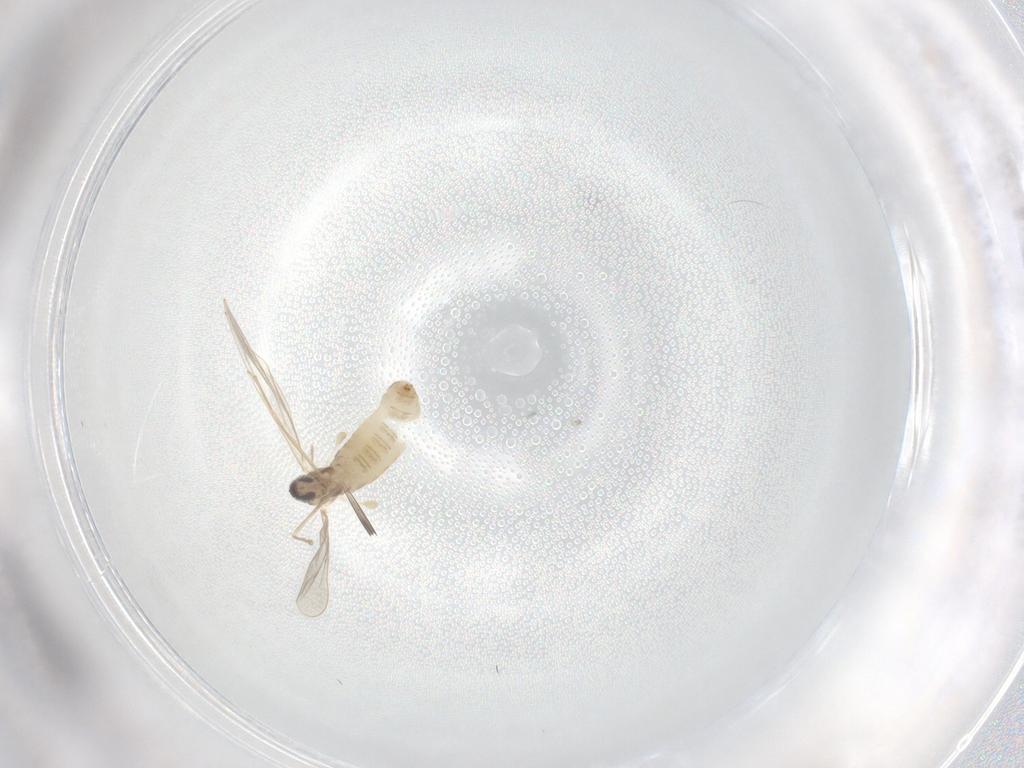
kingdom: Animalia
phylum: Arthropoda
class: Insecta
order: Diptera
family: Cecidomyiidae
